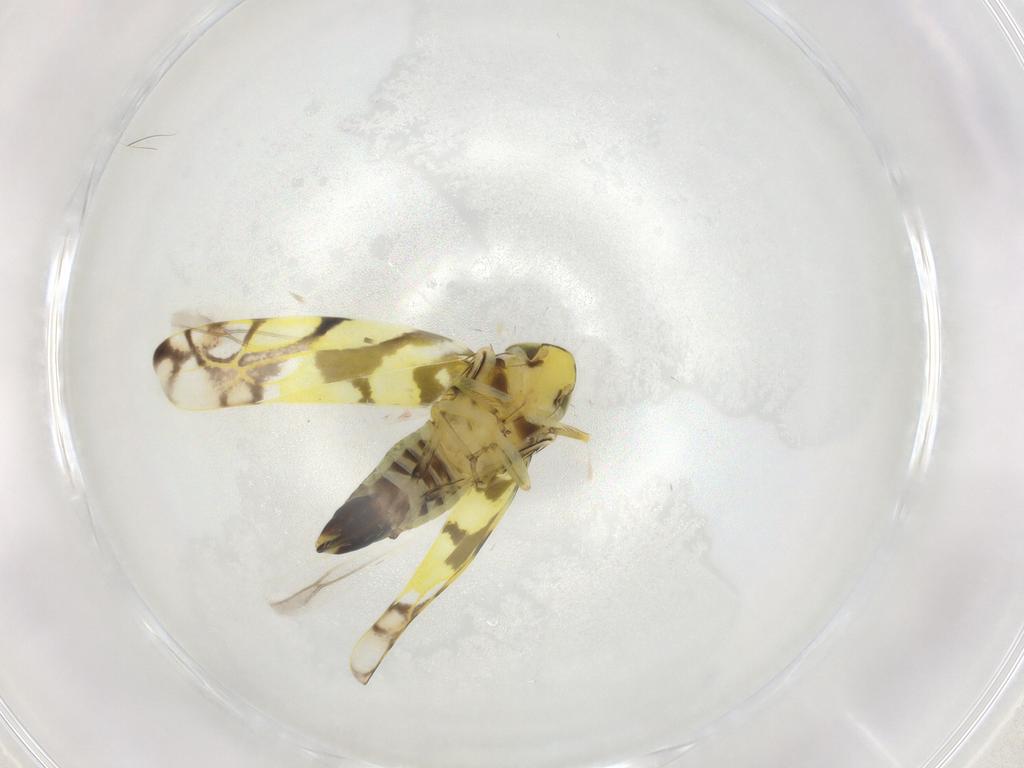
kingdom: Animalia
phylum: Arthropoda
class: Insecta
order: Hemiptera
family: Cicadellidae
